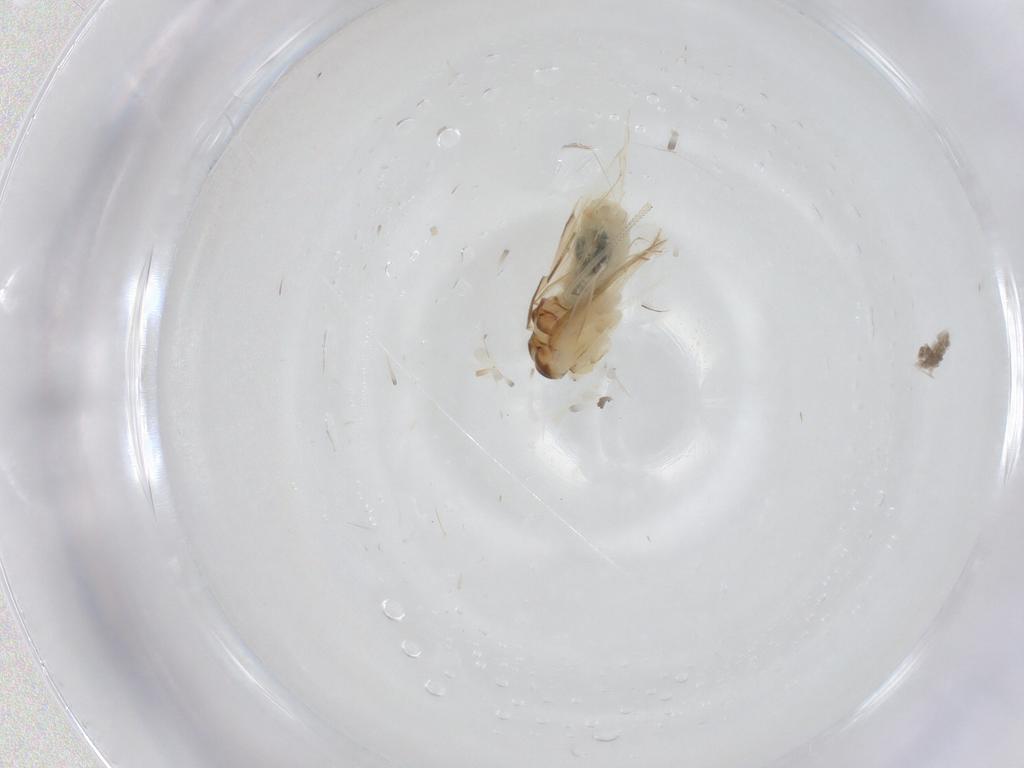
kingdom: Animalia
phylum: Arthropoda
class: Insecta
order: Psocodea
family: Caeciliusidae
